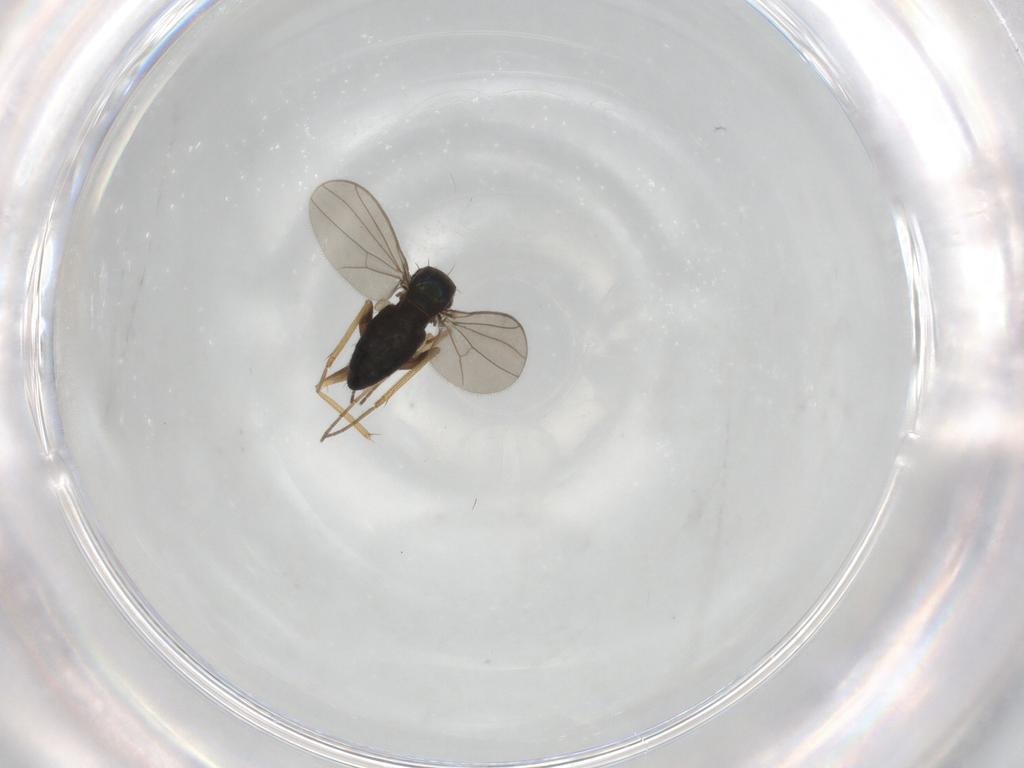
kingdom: Animalia
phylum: Arthropoda
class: Insecta
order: Diptera
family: Dolichopodidae
